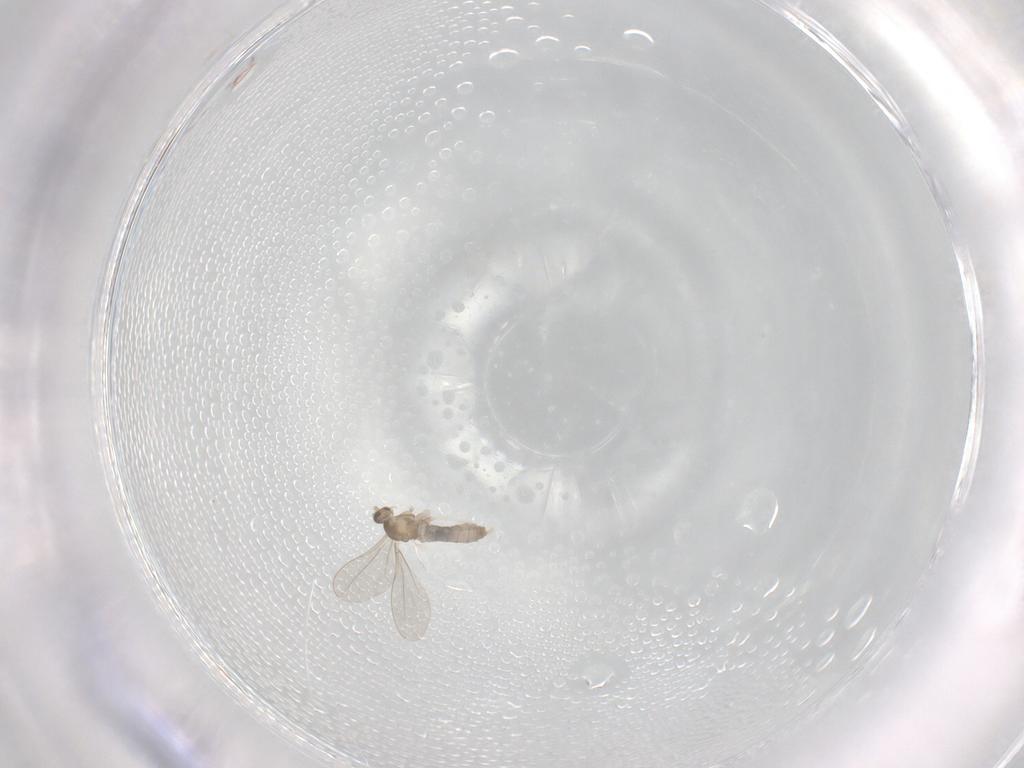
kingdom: Animalia
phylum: Arthropoda
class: Insecta
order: Diptera
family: Cecidomyiidae
